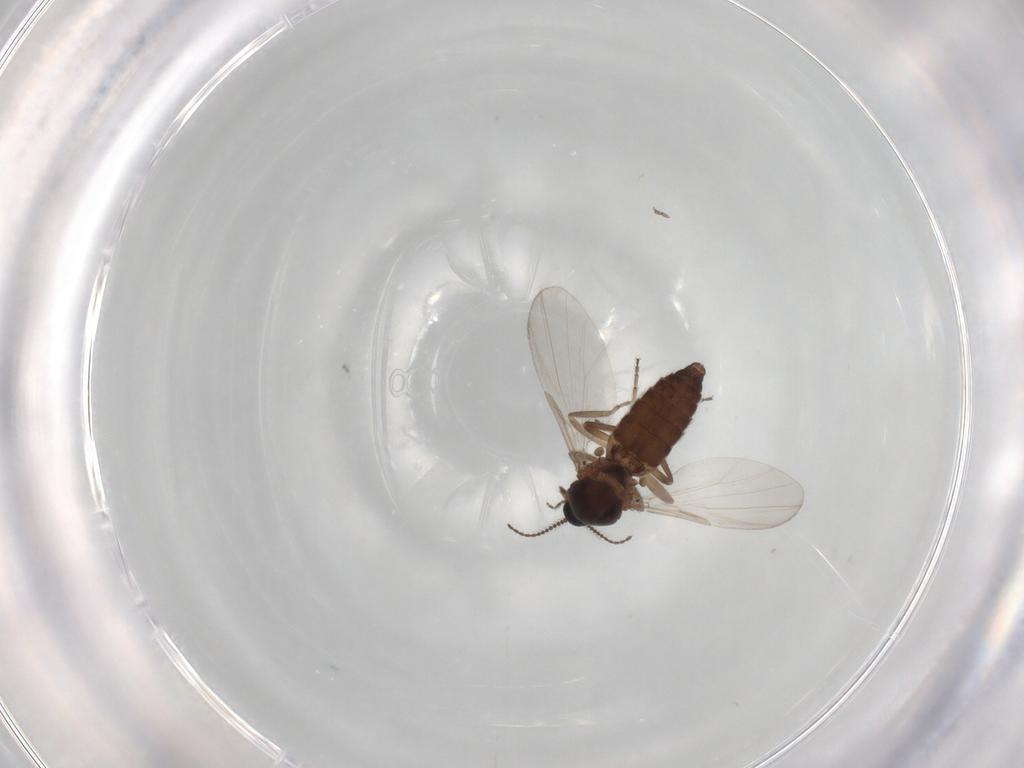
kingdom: Animalia
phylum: Arthropoda
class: Insecta
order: Diptera
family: Ceratopogonidae
